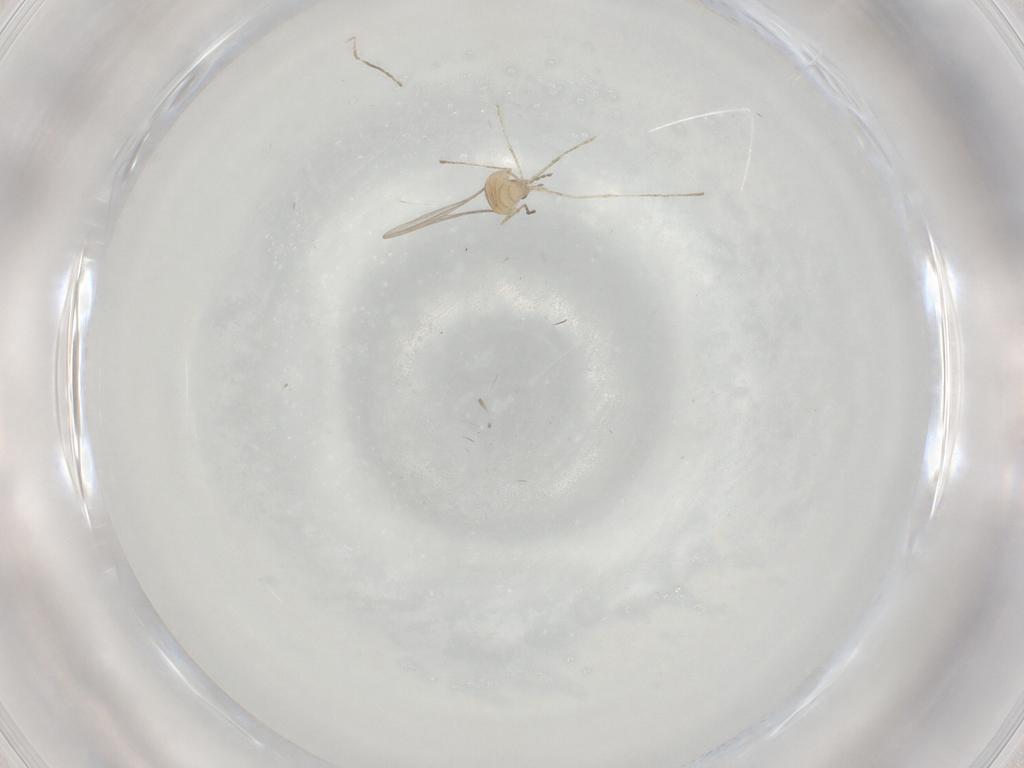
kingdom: Animalia
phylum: Arthropoda
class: Insecta
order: Diptera
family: Cecidomyiidae
